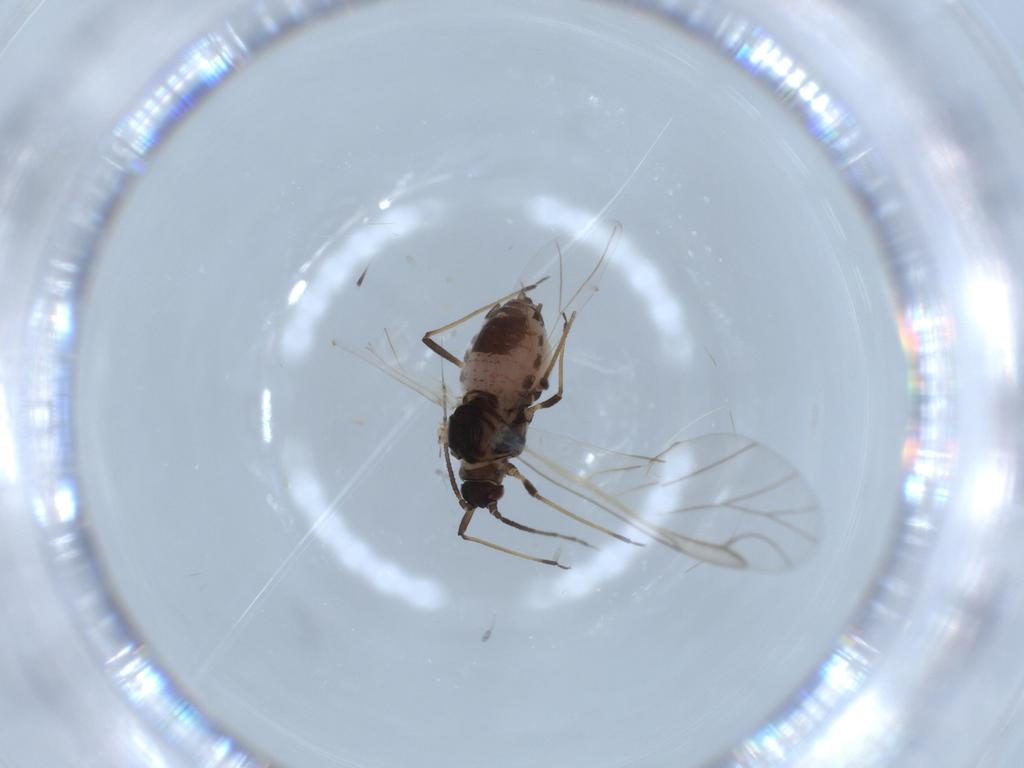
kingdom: Animalia
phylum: Arthropoda
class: Insecta
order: Hemiptera
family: Aphididae
